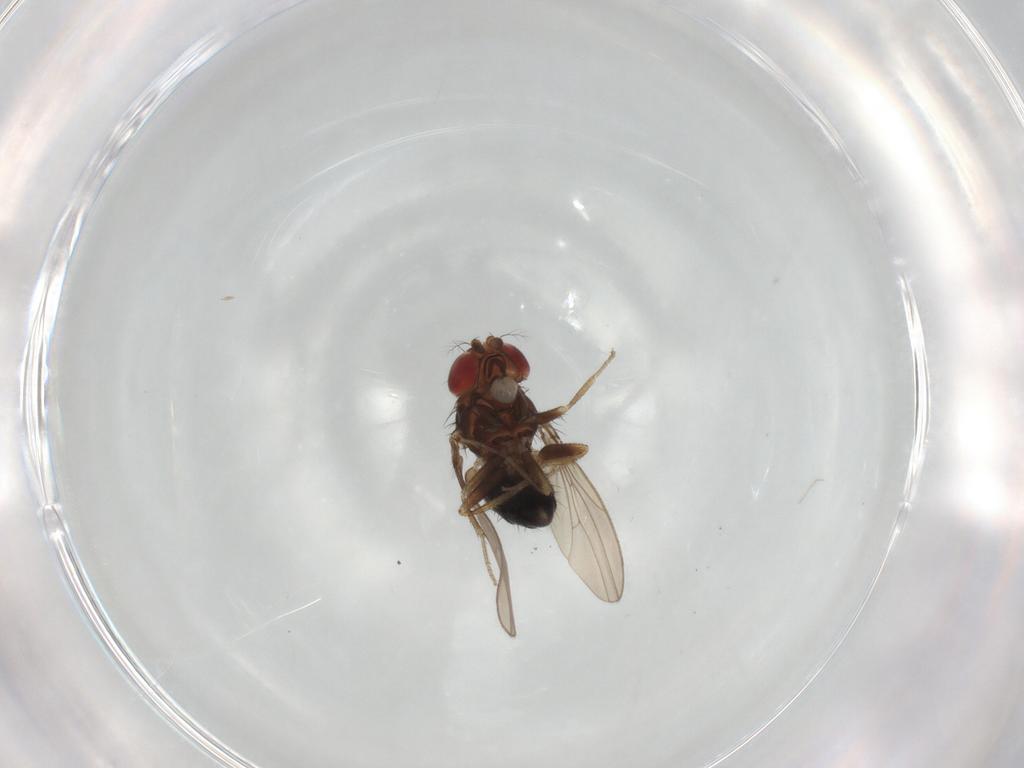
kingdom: Animalia
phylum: Arthropoda
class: Insecta
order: Diptera
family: Drosophilidae
